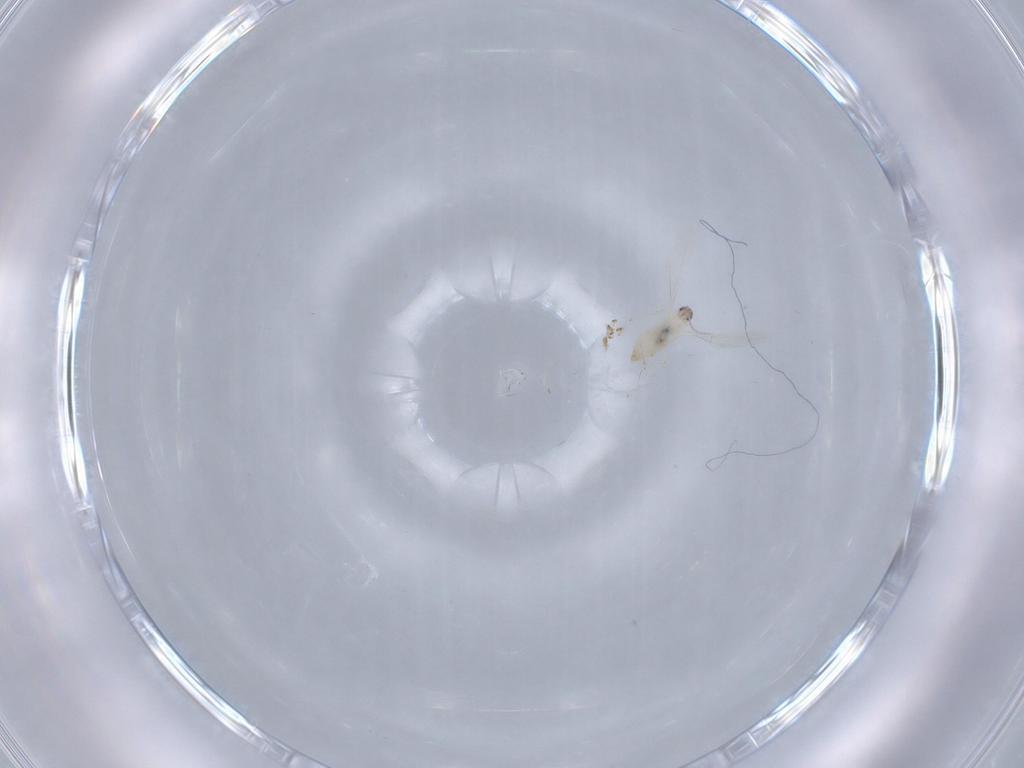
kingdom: Animalia
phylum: Arthropoda
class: Insecta
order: Diptera
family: Cecidomyiidae
